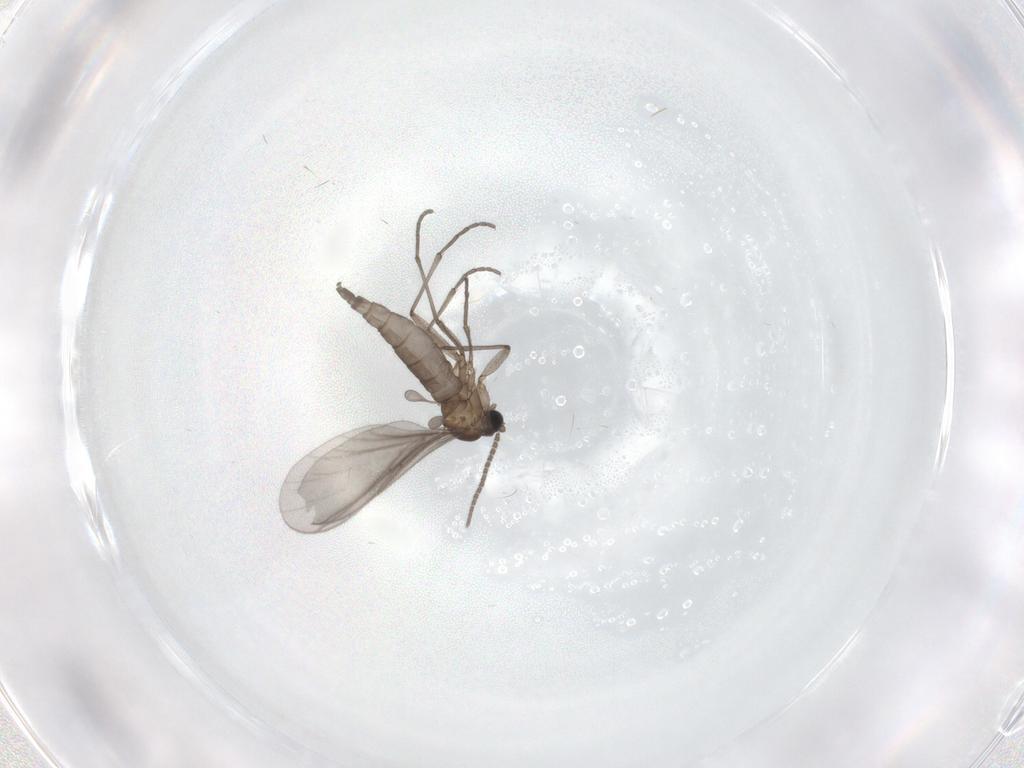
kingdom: Animalia
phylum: Arthropoda
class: Insecta
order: Diptera
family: Sciaridae
